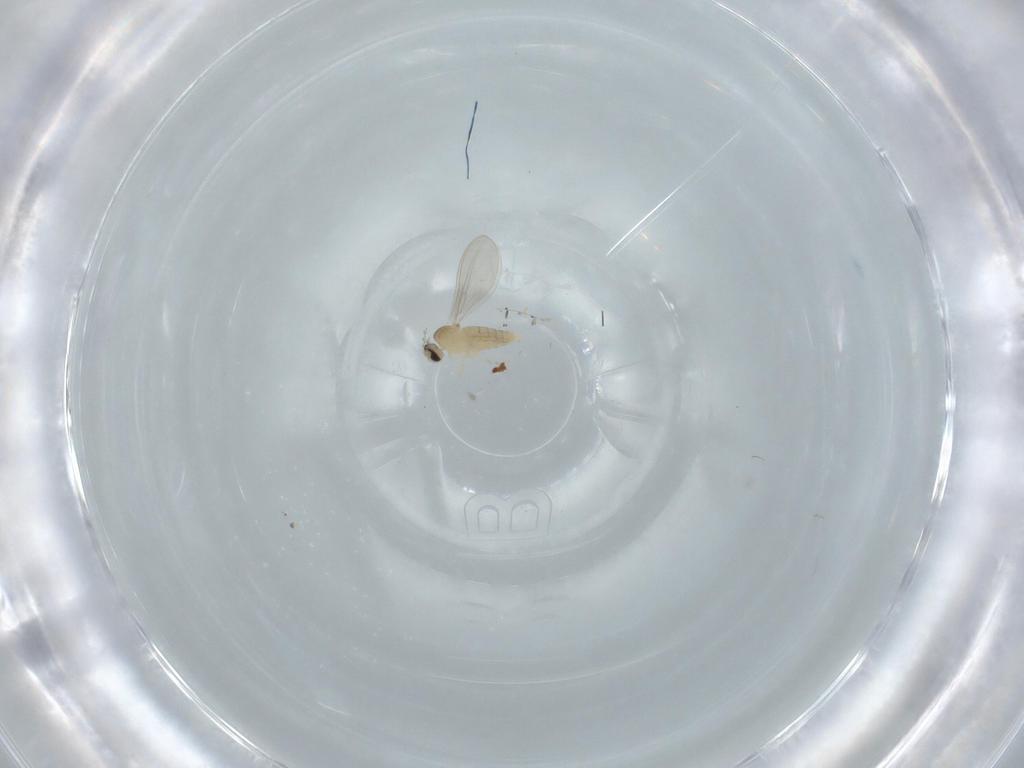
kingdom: Animalia
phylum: Arthropoda
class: Insecta
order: Diptera
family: Cecidomyiidae
